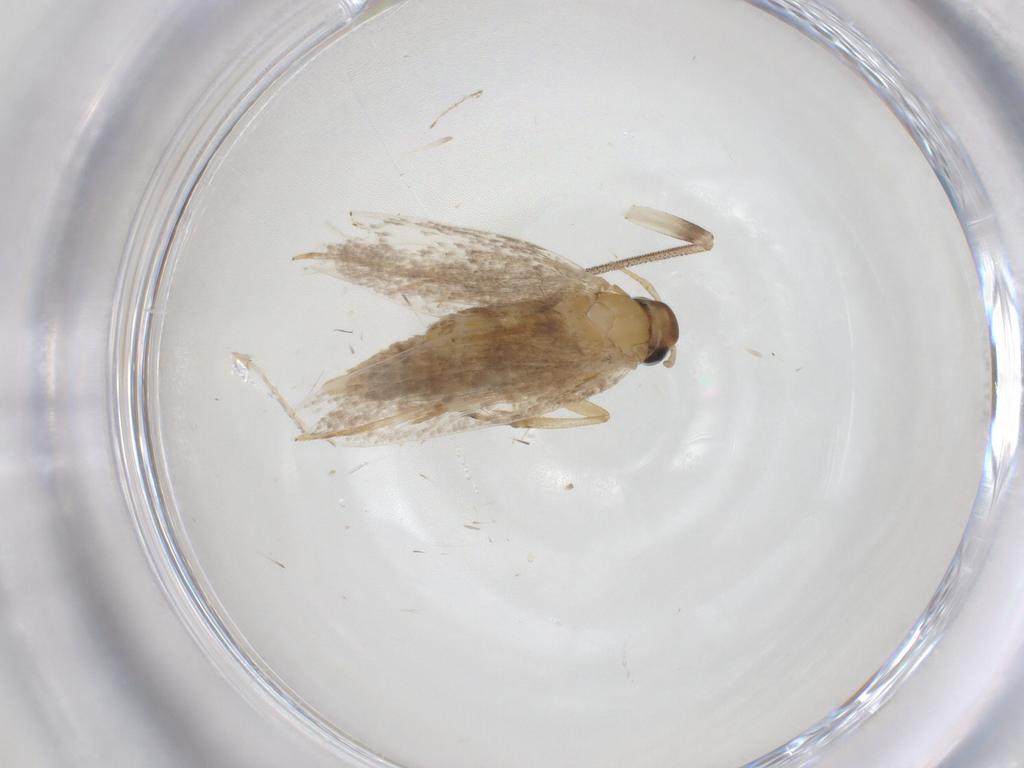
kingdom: Animalia
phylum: Arthropoda
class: Insecta
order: Lepidoptera
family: Oecophoridae
